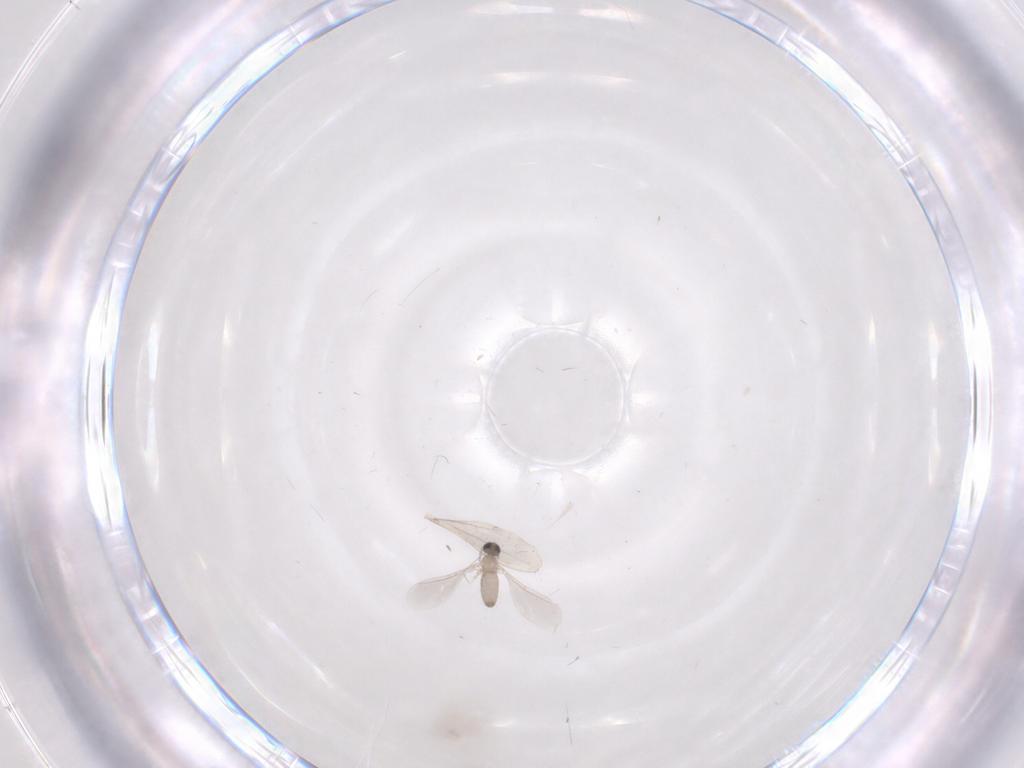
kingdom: Animalia
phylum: Arthropoda
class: Insecta
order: Diptera
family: Cecidomyiidae
